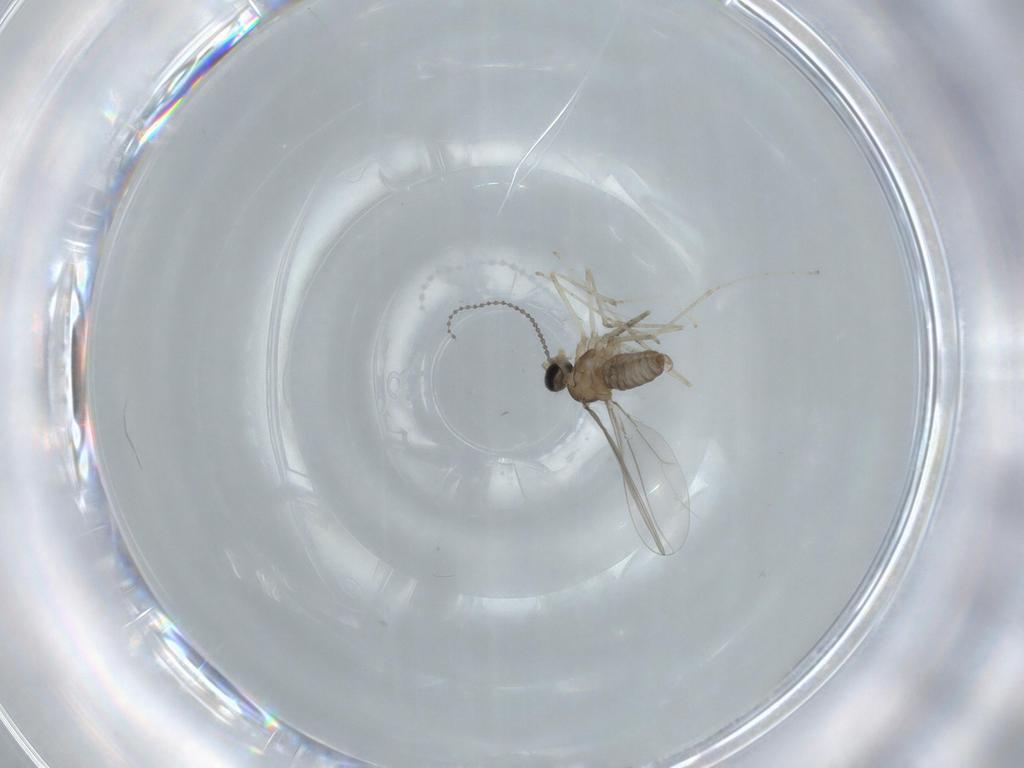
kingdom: Animalia
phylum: Arthropoda
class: Insecta
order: Diptera
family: Cecidomyiidae
